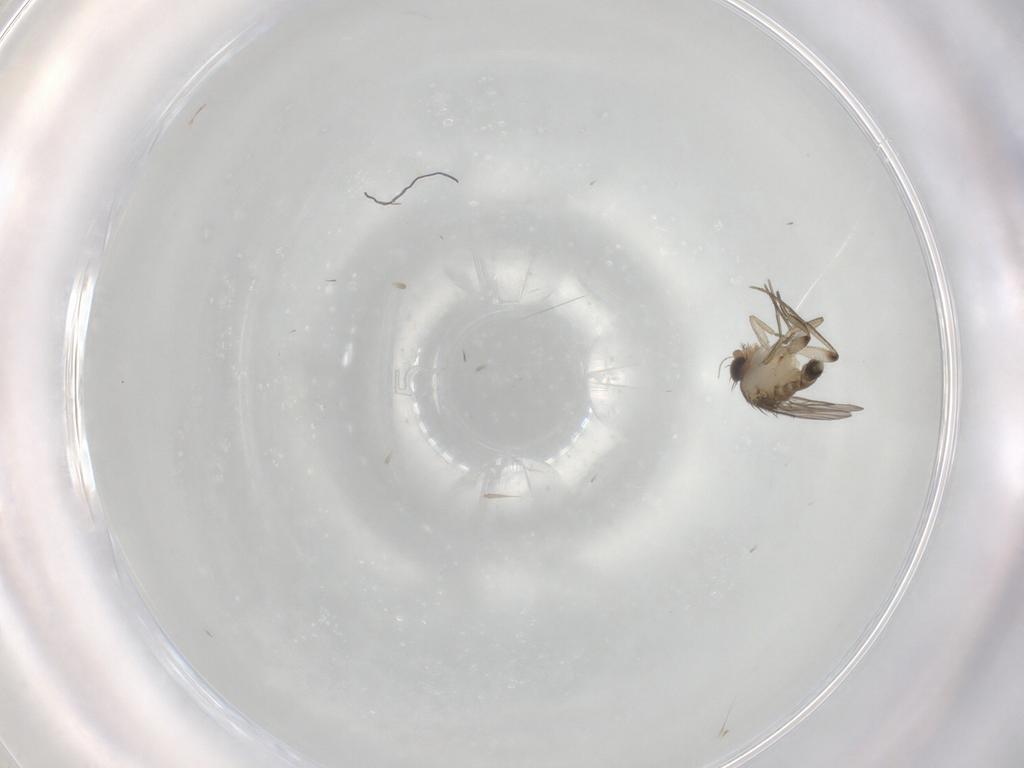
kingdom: Animalia
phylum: Arthropoda
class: Insecta
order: Diptera
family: Phoridae
